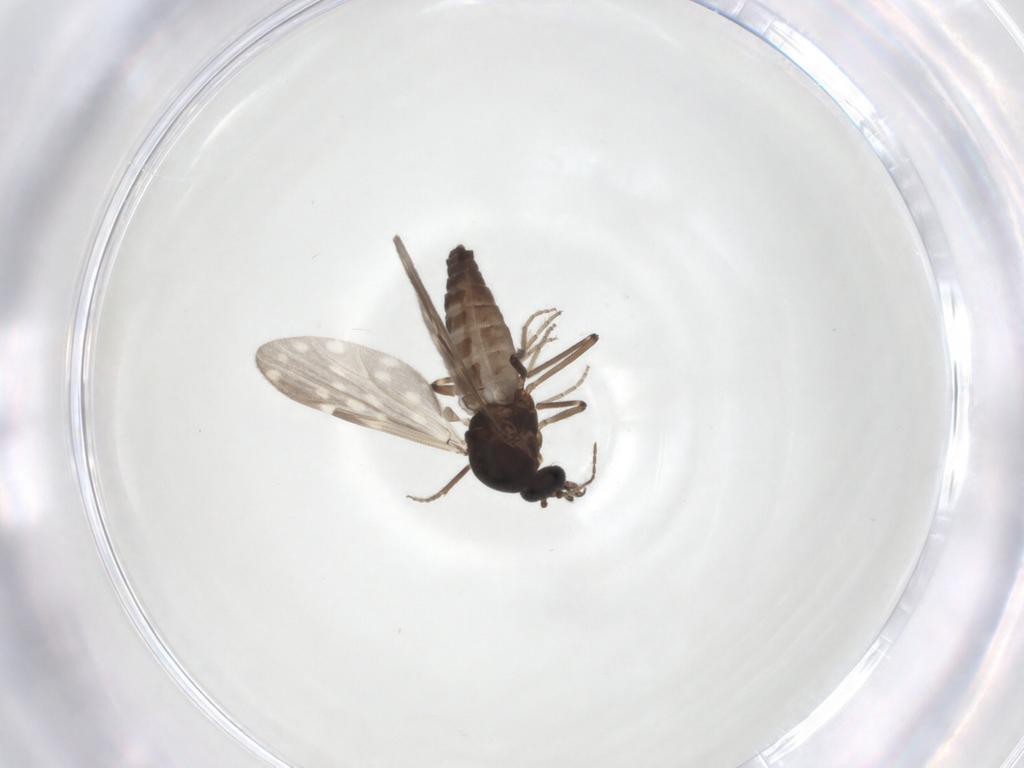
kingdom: Animalia
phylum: Arthropoda
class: Insecta
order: Diptera
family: Ceratopogonidae
